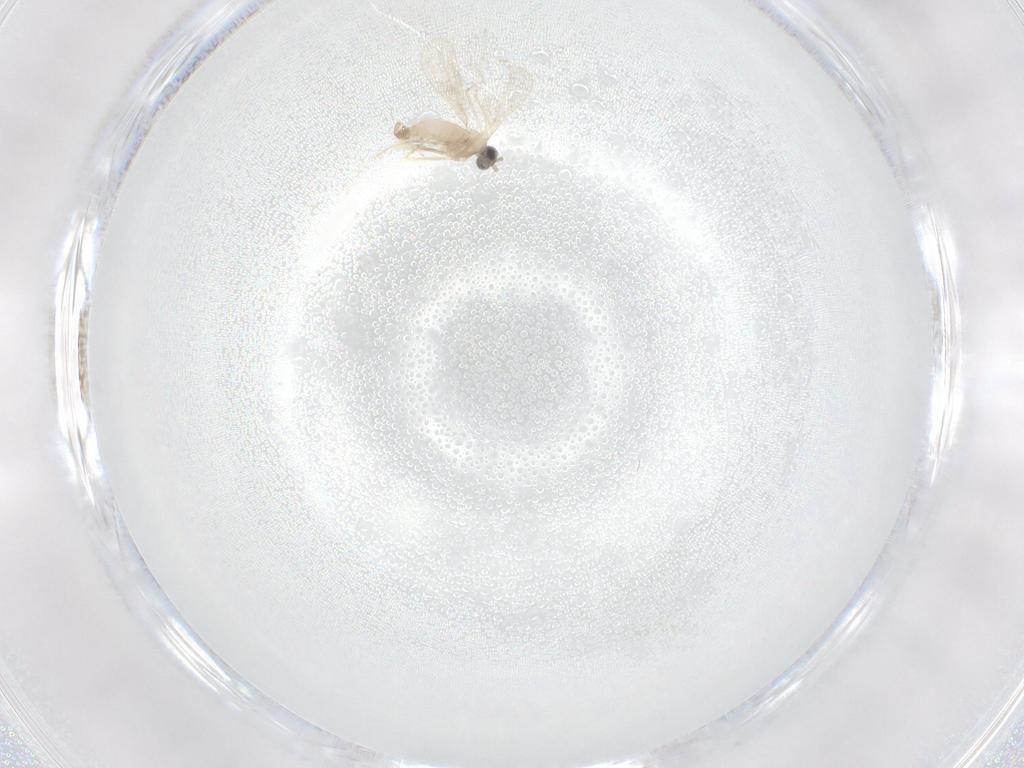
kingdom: Animalia
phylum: Arthropoda
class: Insecta
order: Diptera
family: Cecidomyiidae
